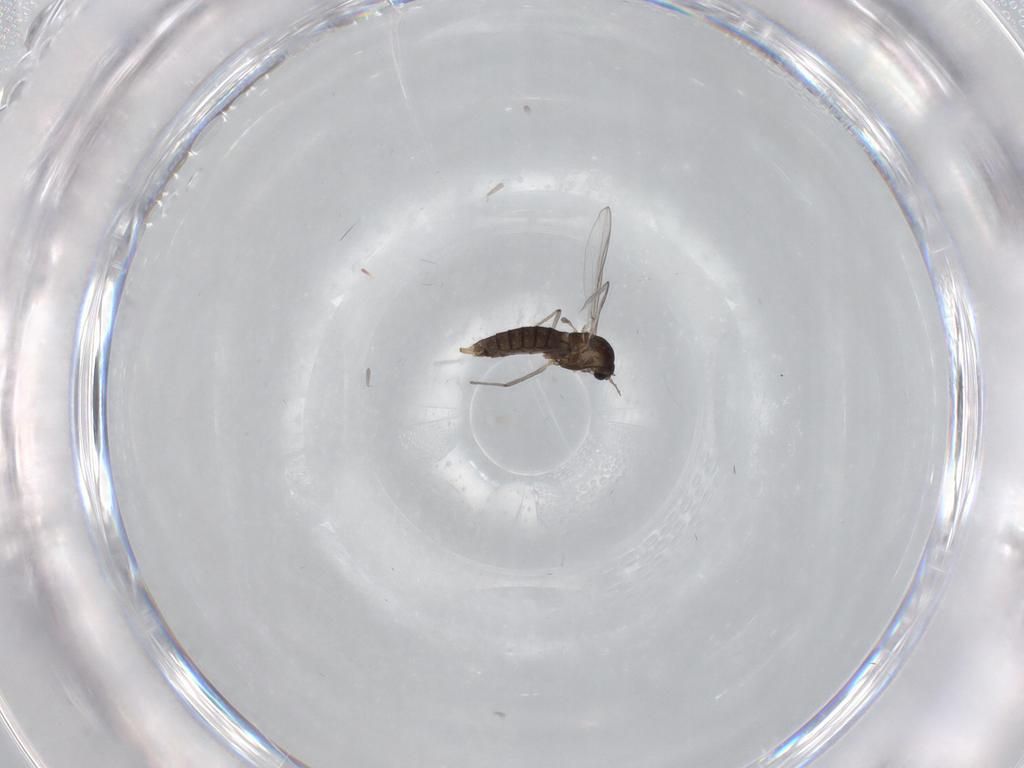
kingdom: Animalia
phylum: Arthropoda
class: Insecta
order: Diptera
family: Chironomidae
